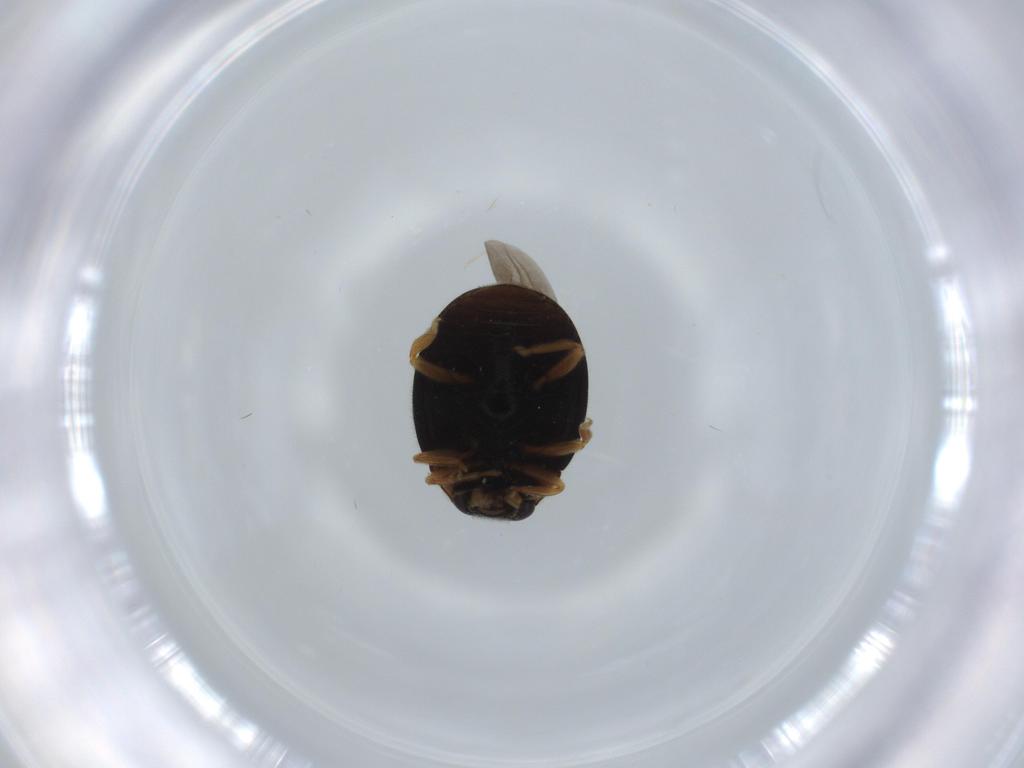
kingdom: Animalia
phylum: Arthropoda
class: Insecta
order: Coleoptera
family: Coccinellidae
